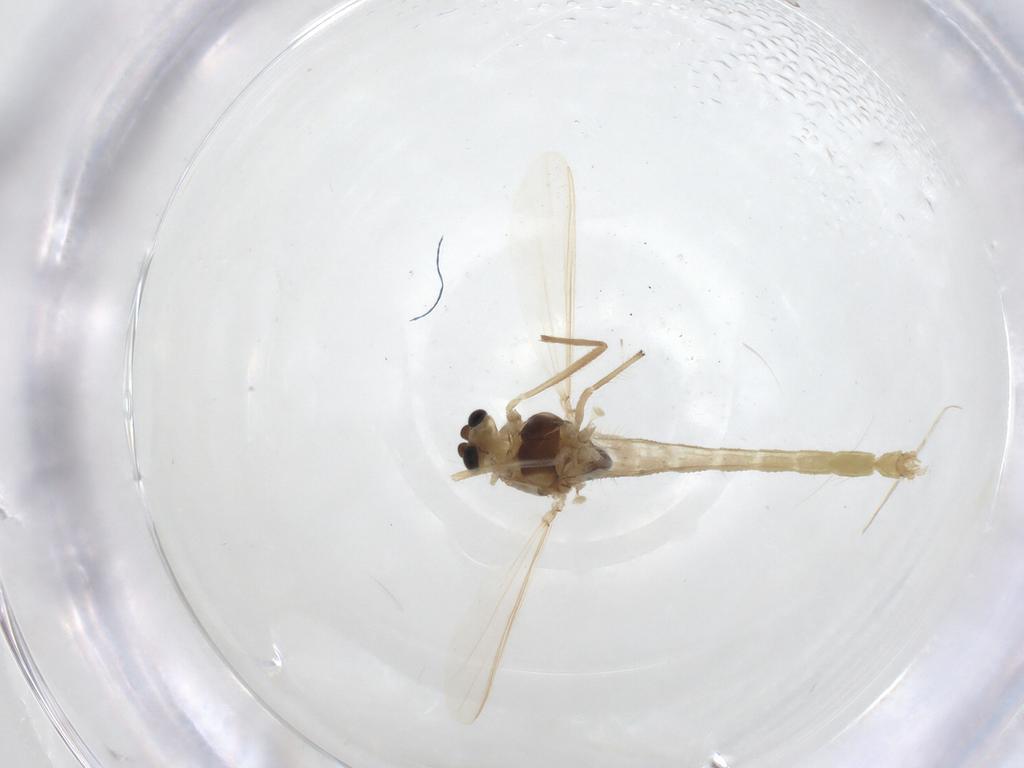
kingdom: Animalia
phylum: Arthropoda
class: Insecta
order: Diptera
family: Chironomidae
